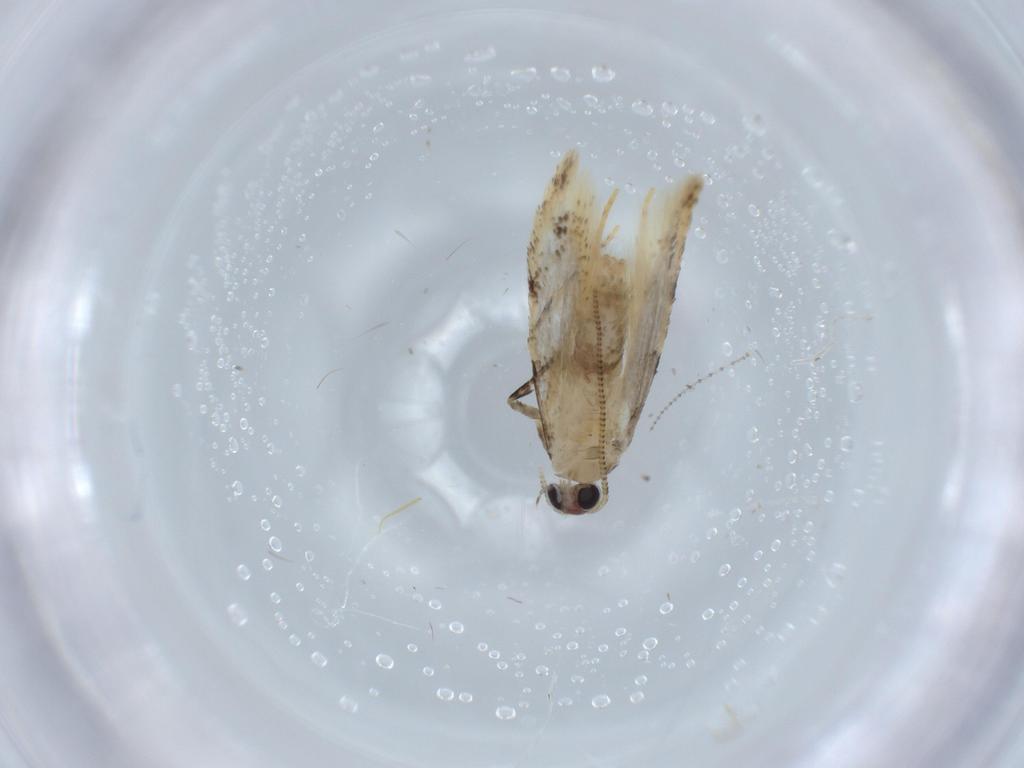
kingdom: Animalia
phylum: Arthropoda
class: Insecta
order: Lepidoptera
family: Tineidae
